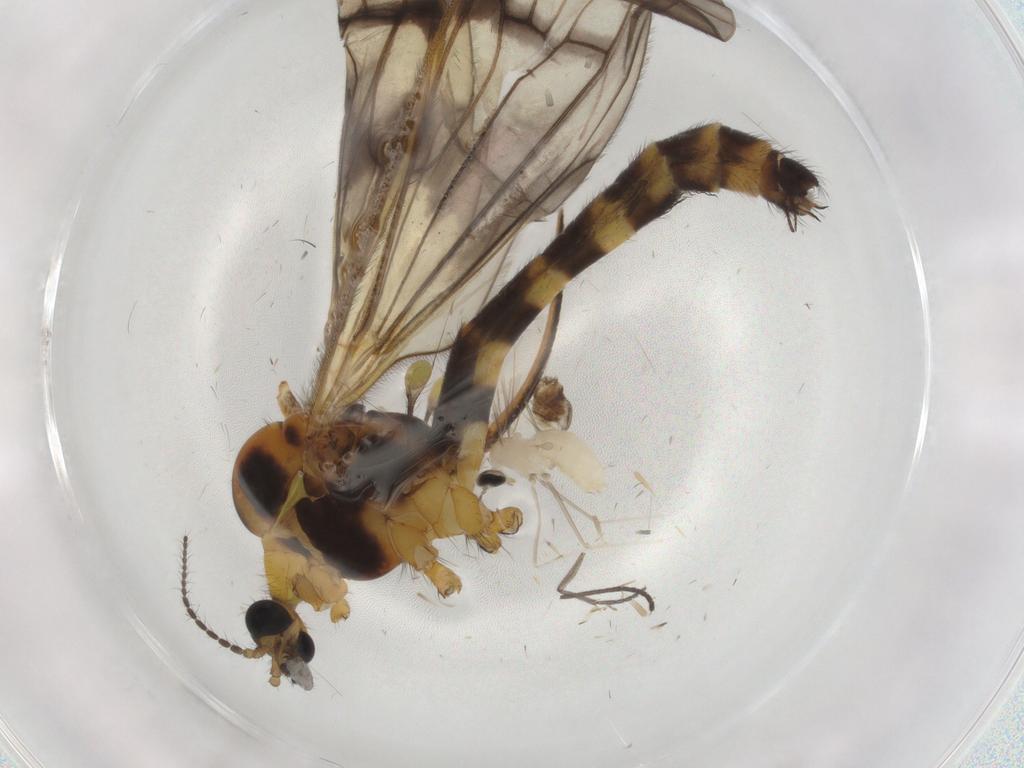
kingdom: Animalia
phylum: Arthropoda
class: Insecta
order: Diptera
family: Limoniidae
